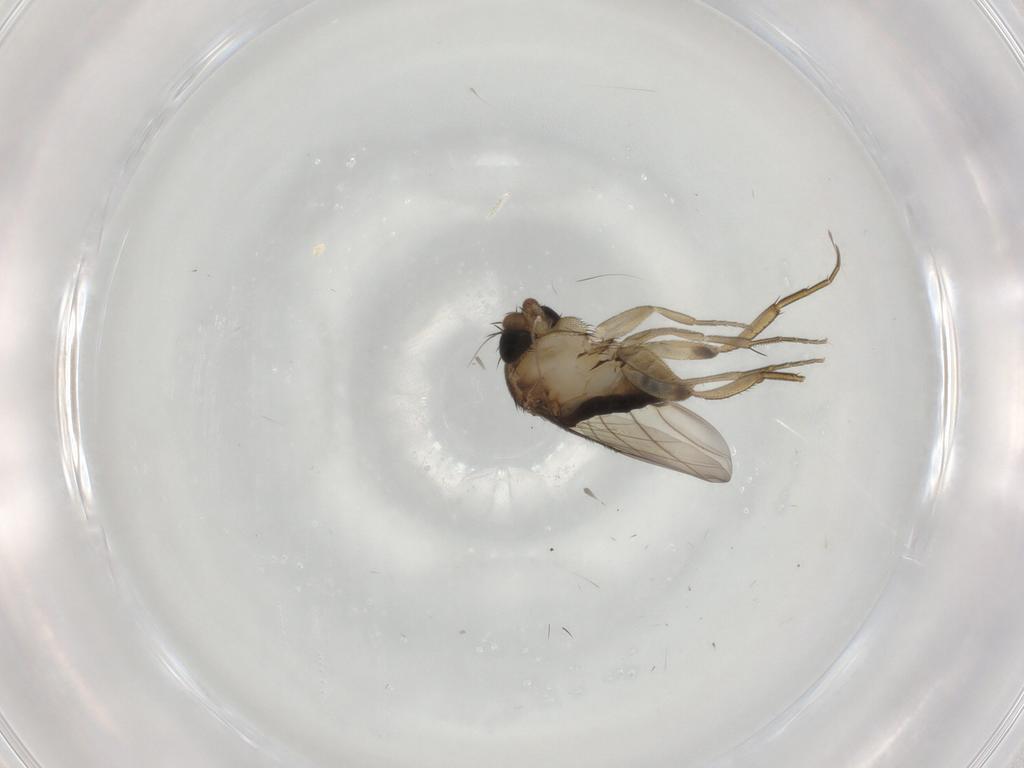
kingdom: Animalia
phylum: Arthropoda
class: Insecta
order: Diptera
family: Phoridae
